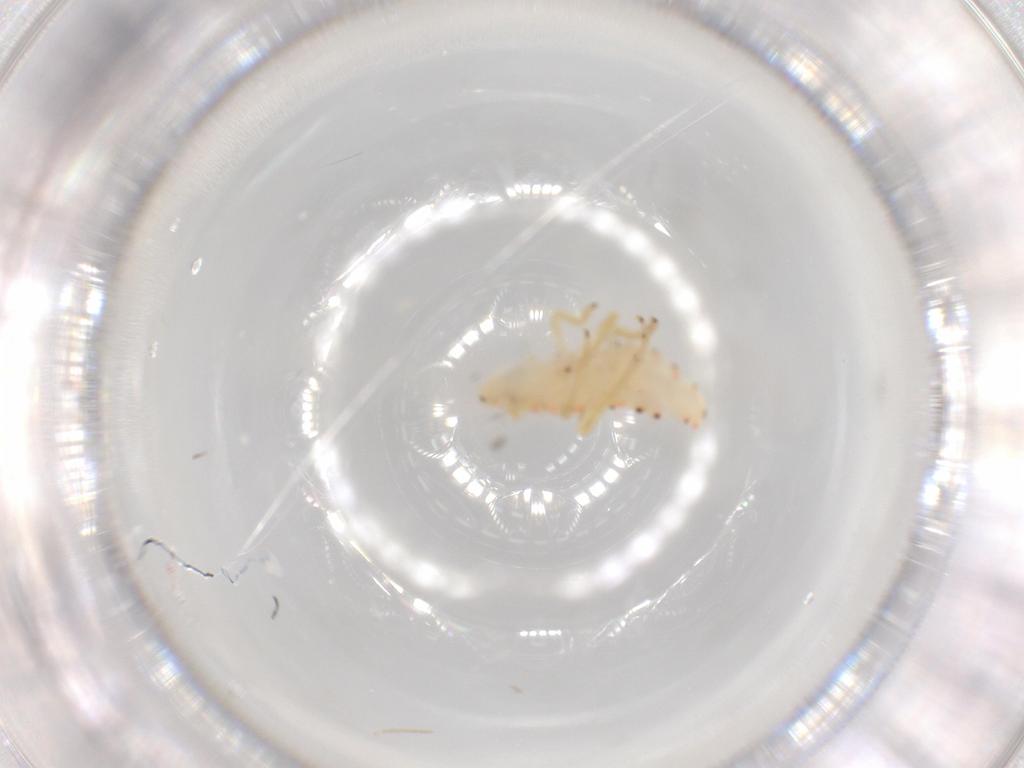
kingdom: Animalia
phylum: Arthropoda
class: Insecta
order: Hemiptera
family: Tropiduchidae
